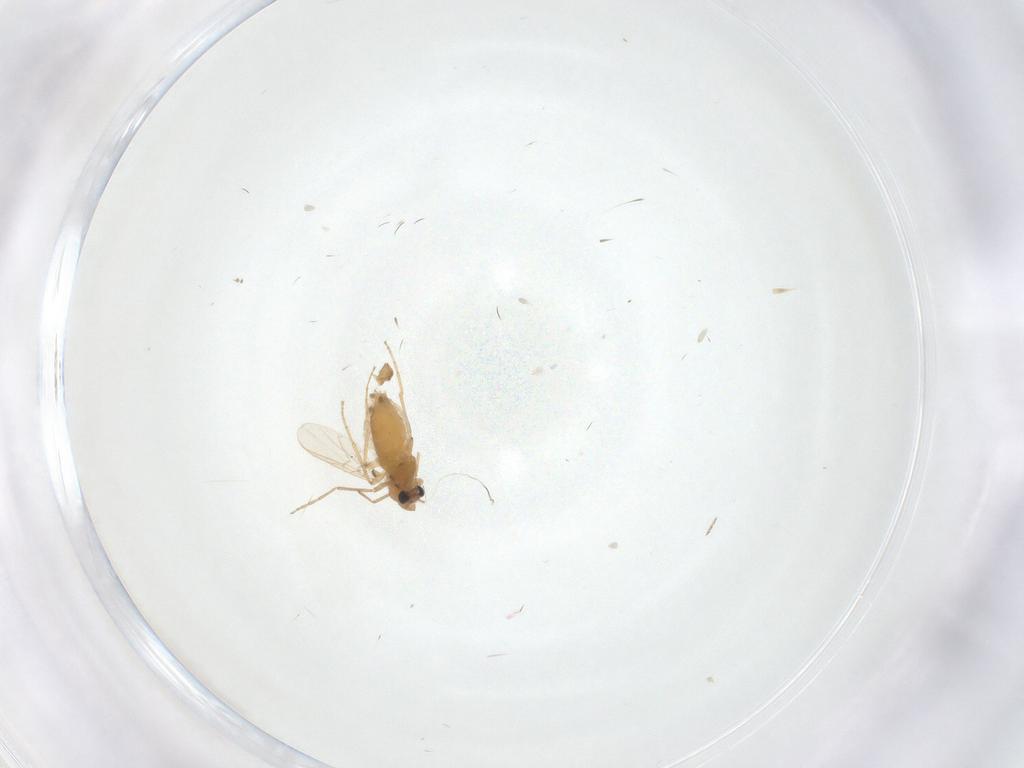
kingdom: Animalia
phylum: Arthropoda
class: Insecta
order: Diptera
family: Chironomidae
